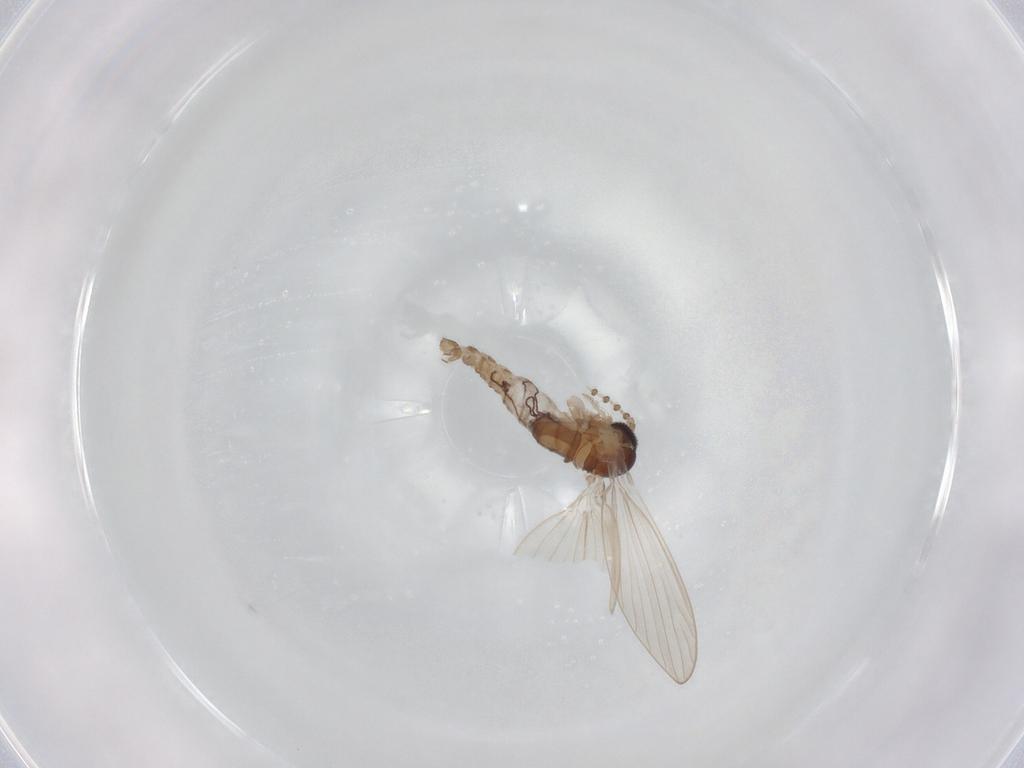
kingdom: Animalia
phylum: Arthropoda
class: Insecta
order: Diptera
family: Psychodidae
